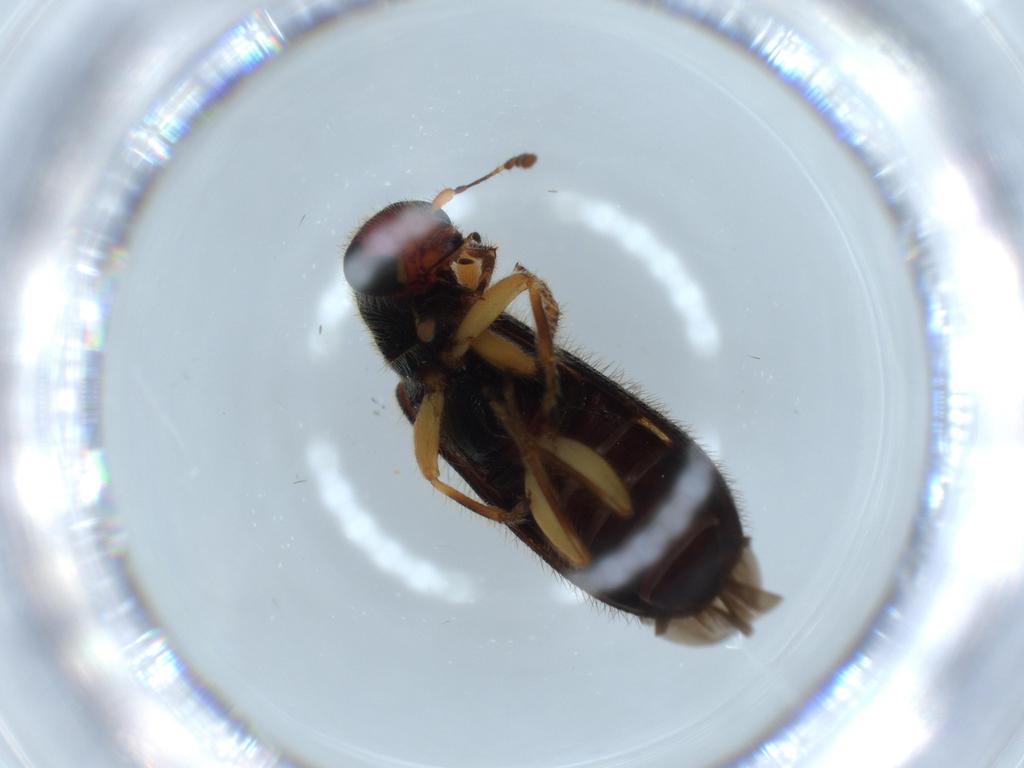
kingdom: Animalia
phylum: Arthropoda
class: Insecta
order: Coleoptera
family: Cleridae
